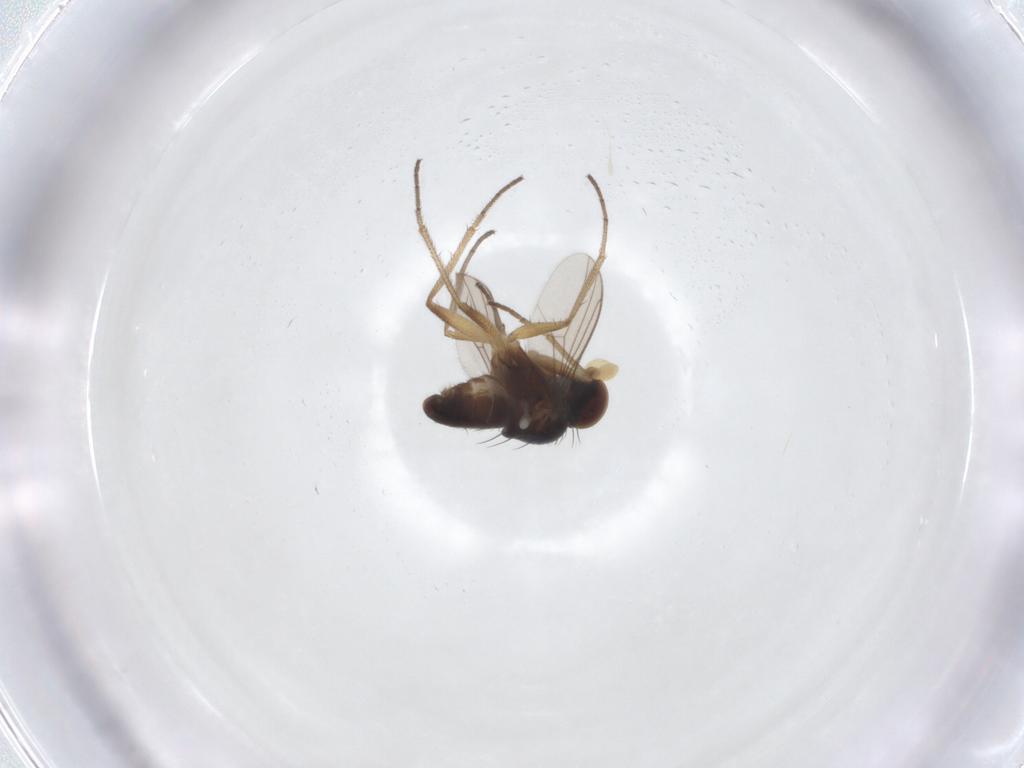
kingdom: Animalia
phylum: Arthropoda
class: Insecta
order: Diptera
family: Dolichopodidae
